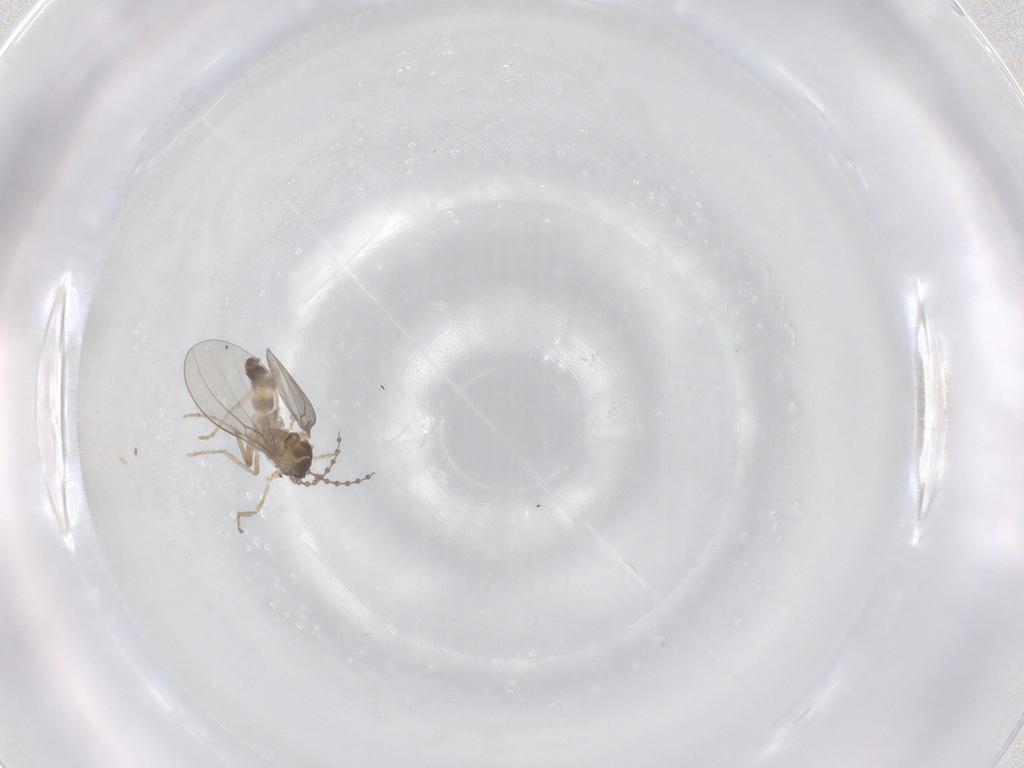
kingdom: Animalia
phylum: Arthropoda
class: Insecta
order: Diptera
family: Cecidomyiidae
